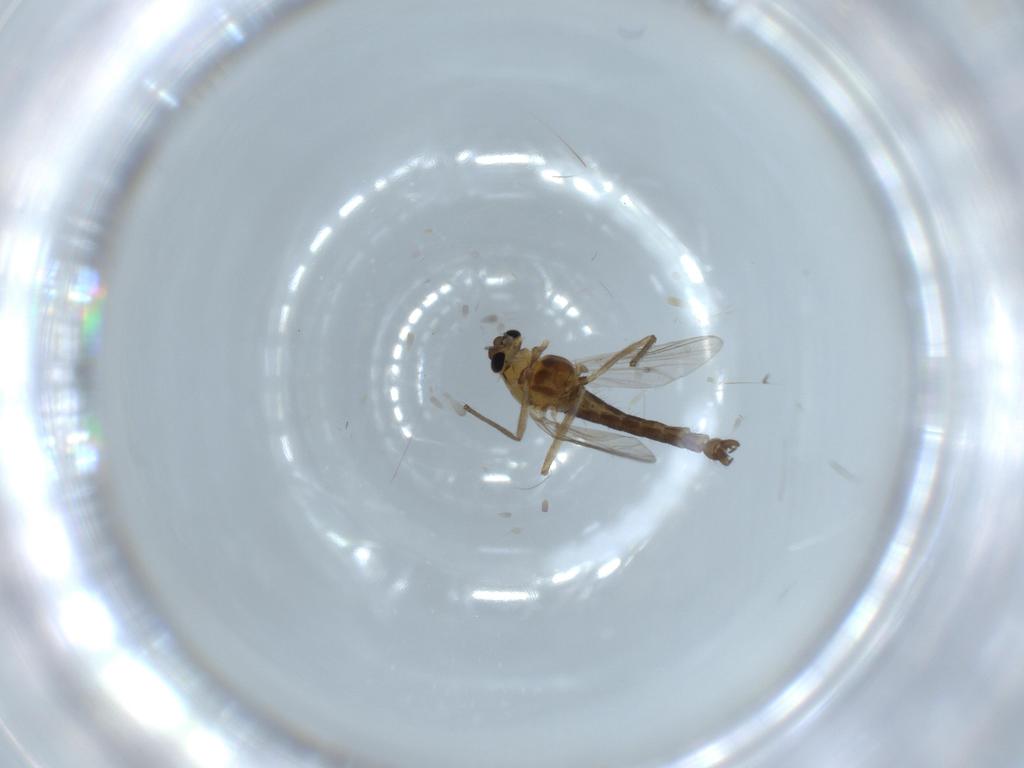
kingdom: Animalia
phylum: Arthropoda
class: Insecta
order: Diptera
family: Chironomidae
